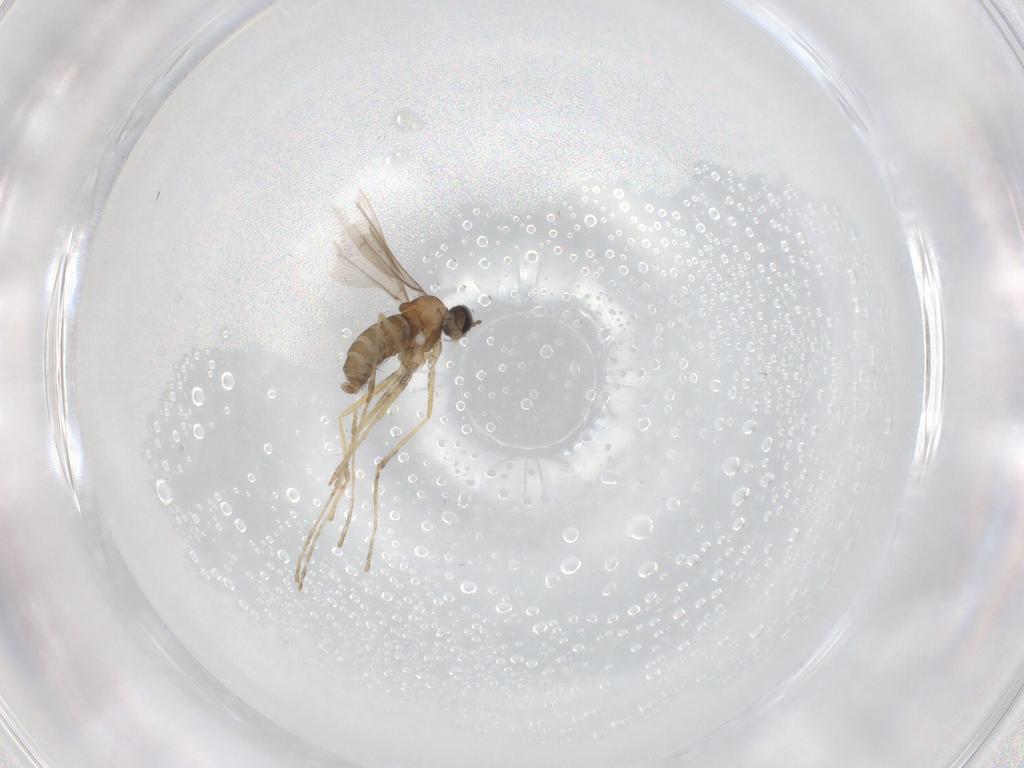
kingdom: Animalia
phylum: Arthropoda
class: Insecta
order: Diptera
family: Cecidomyiidae
